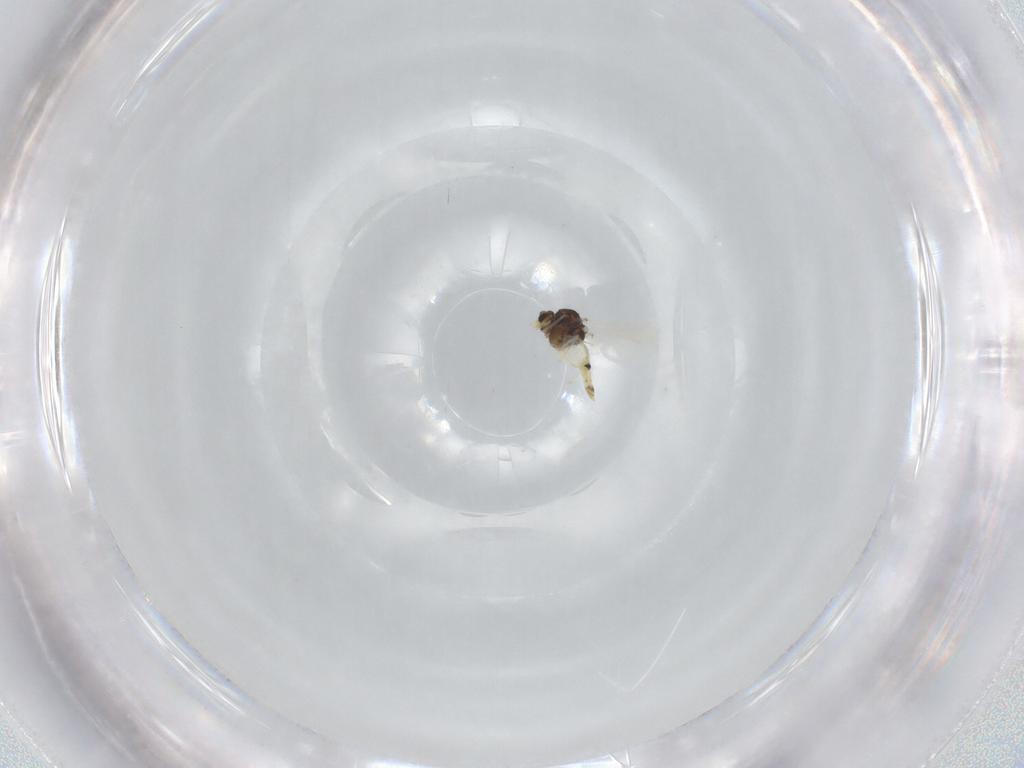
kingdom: Animalia
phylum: Arthropoda
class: Insecta
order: Diptera
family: Chironomidae
